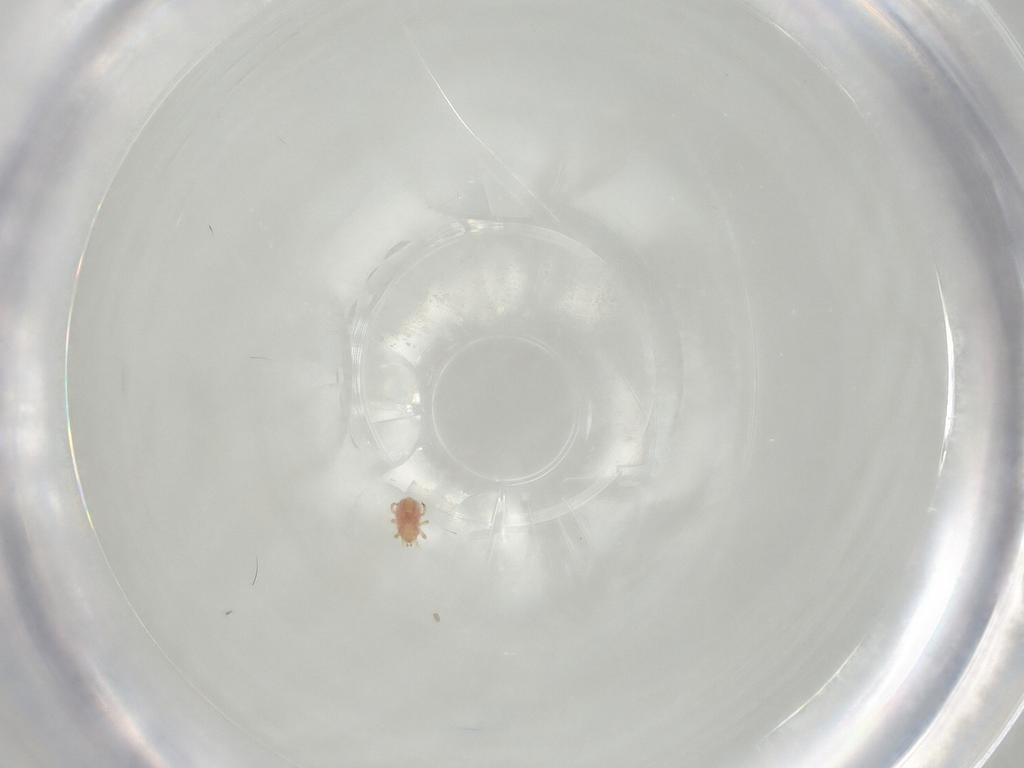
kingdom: Animalia
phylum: Arthropoda
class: Arachnida
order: Mesostigmata
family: Phytoseiidae
